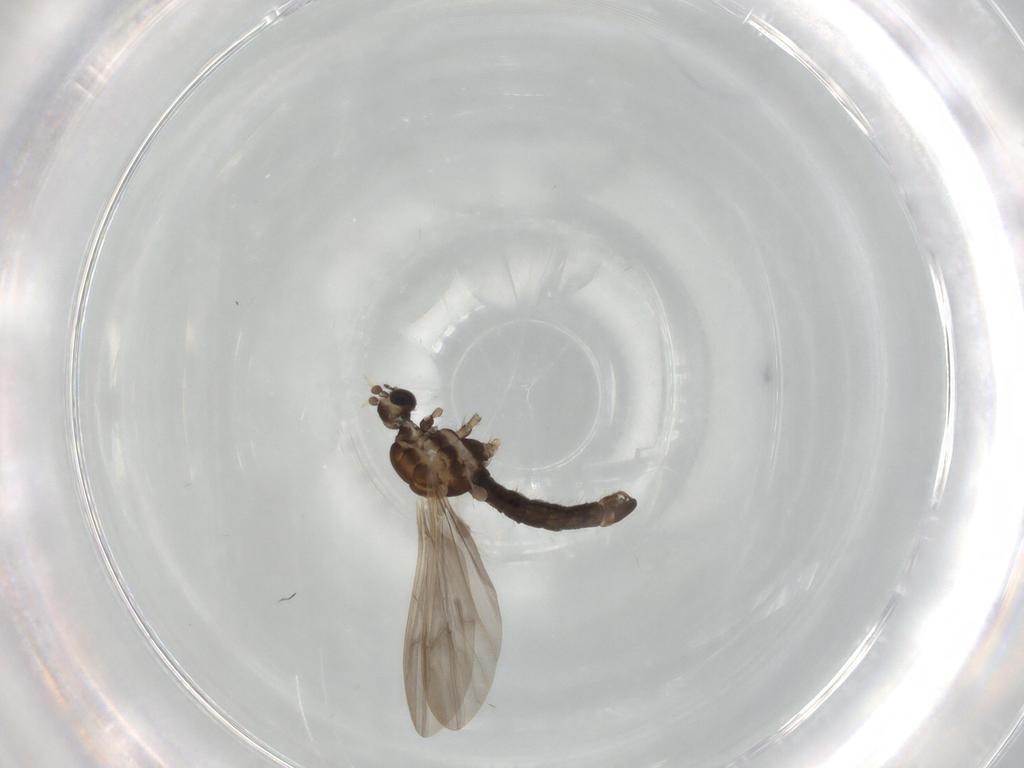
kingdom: Animalia
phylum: Arthropoda
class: Insecta
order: Diptera
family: Limoniidae
